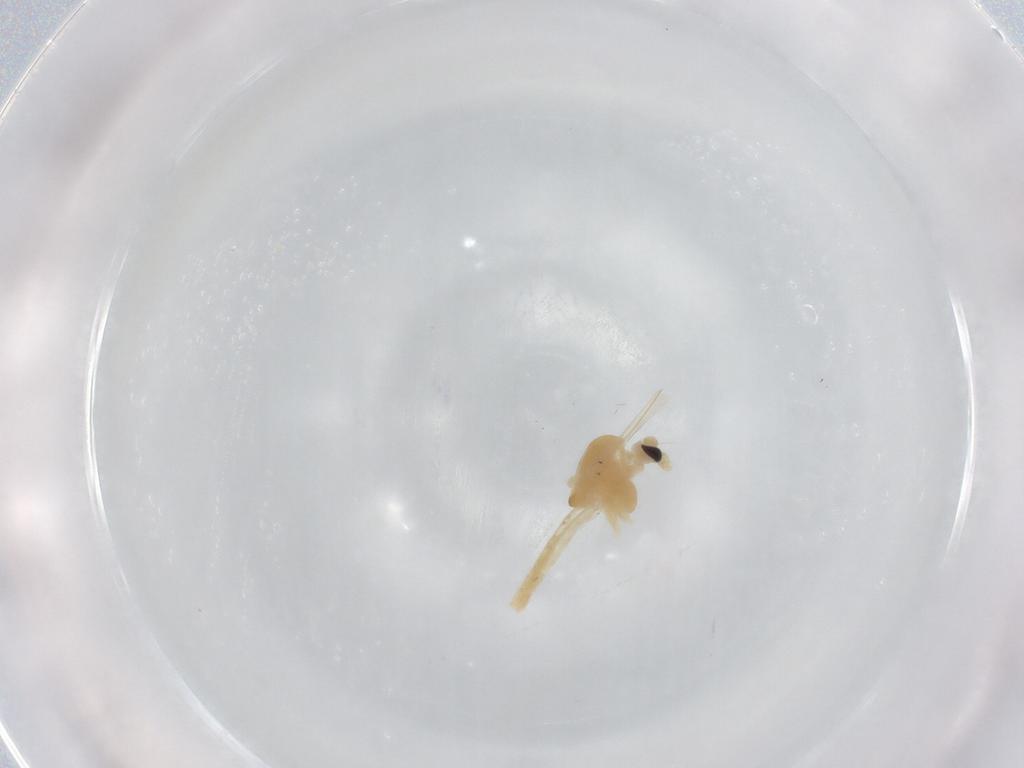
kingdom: Animalia
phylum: Arthropoda
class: Insecta
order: Diptera
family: Chironomidae
